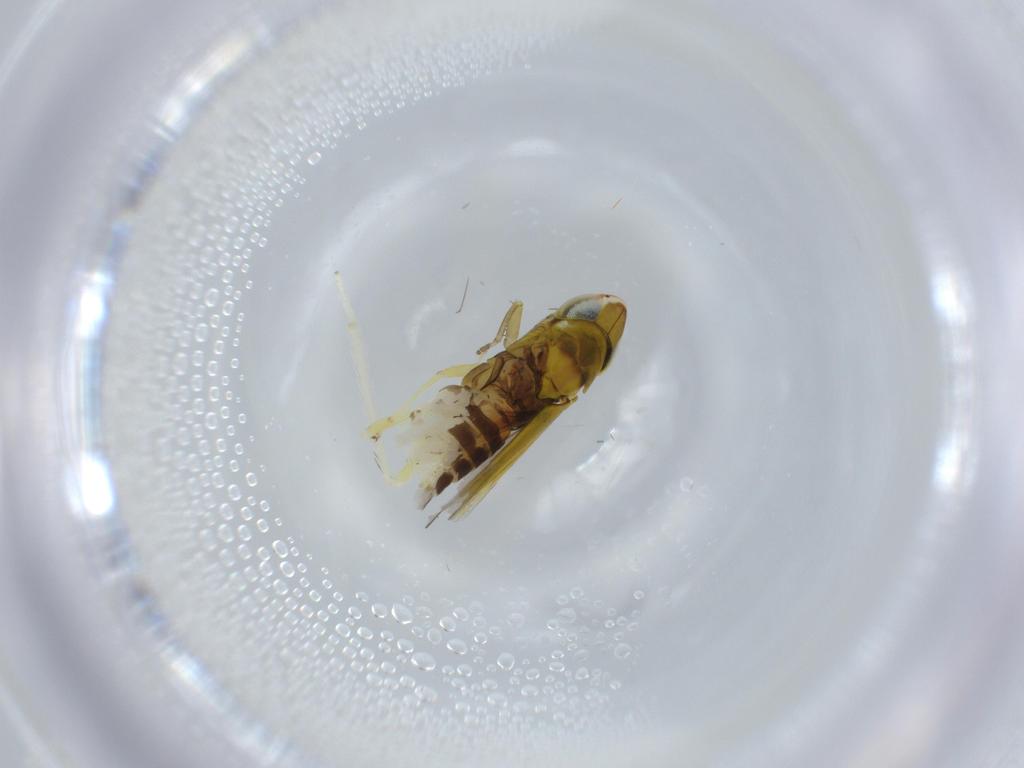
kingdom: Animalia
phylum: Arthropoda
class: Insecta
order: Hemiptera
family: Cicadellidae
